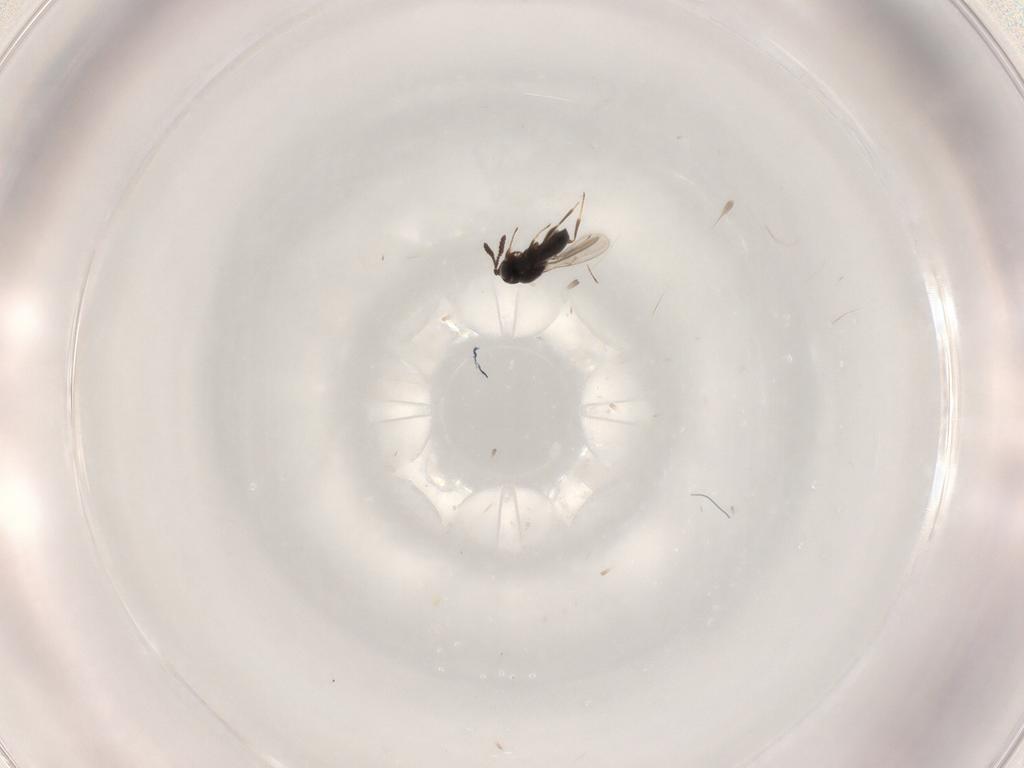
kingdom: Animalia
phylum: Arthropoda
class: Insecta
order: Hymenoptera
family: Scelionidae
